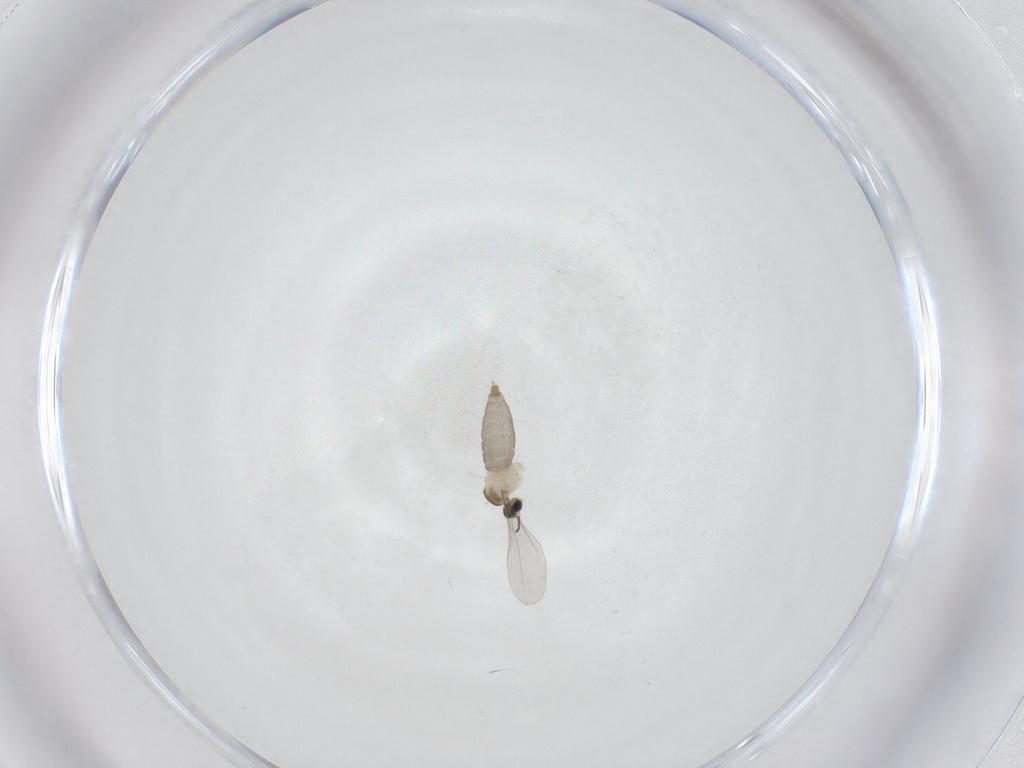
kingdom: Animalia
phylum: Arthropoda
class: Insecta
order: Diptera
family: Cecidomyiidae
